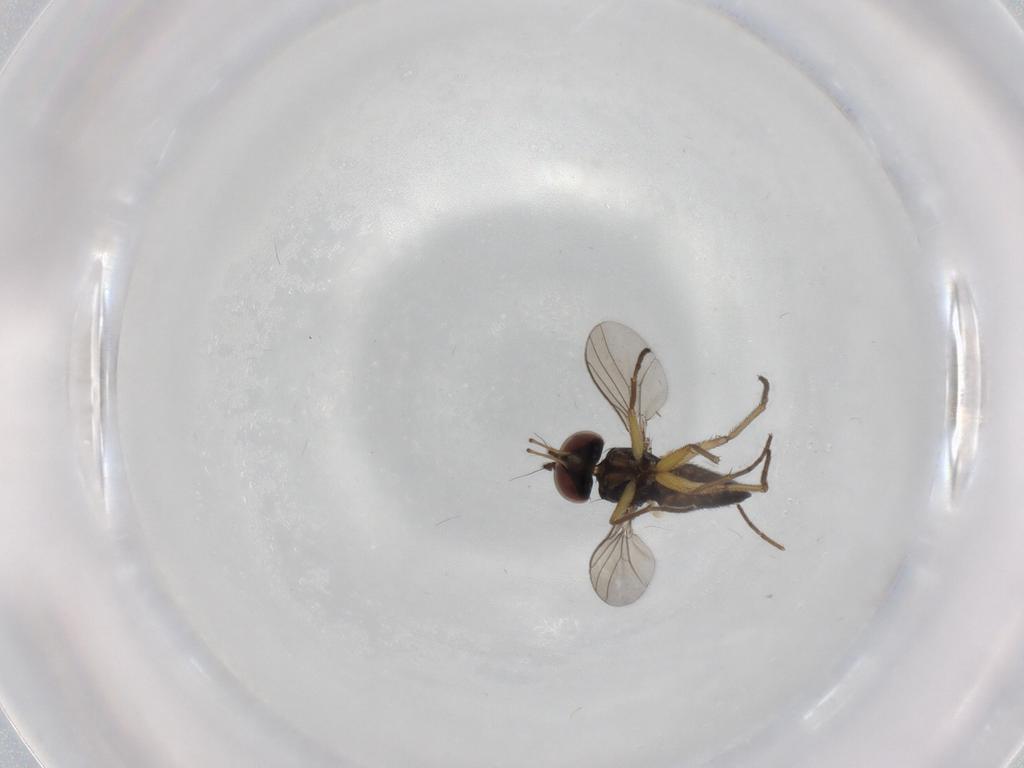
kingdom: Animalia
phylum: Arthropoda
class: Insecta
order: Diptera
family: Dolichopodidae
